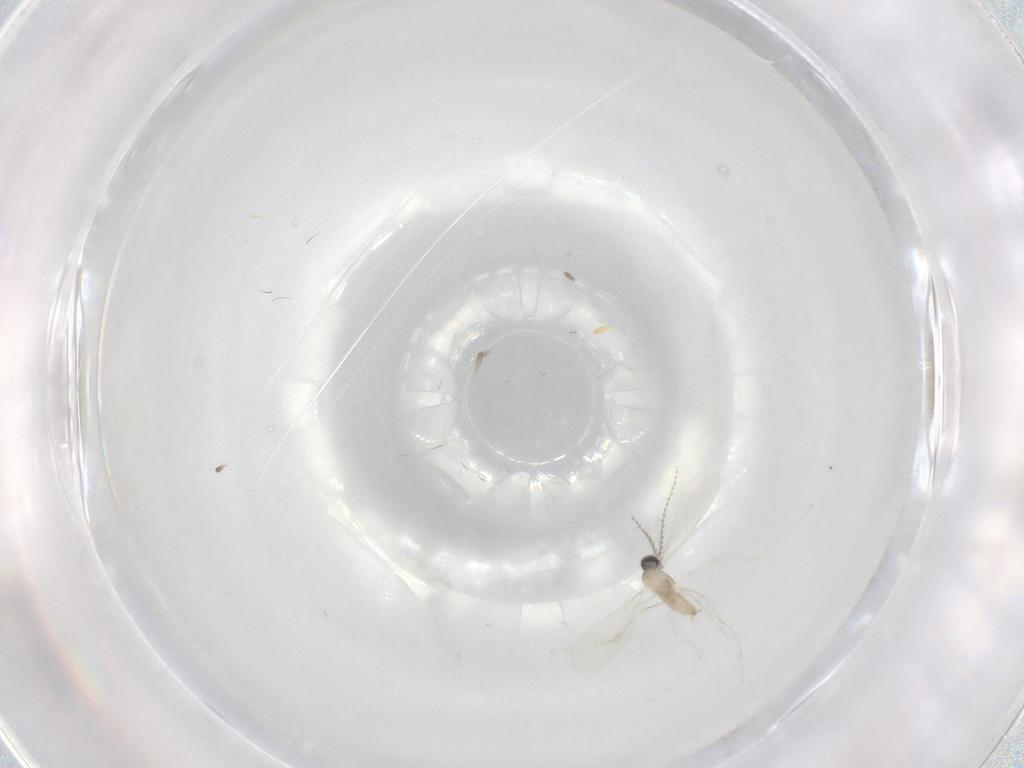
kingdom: Animalia
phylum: Arthropoda
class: Insecta
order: Diptera
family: Cecidomyiidae
